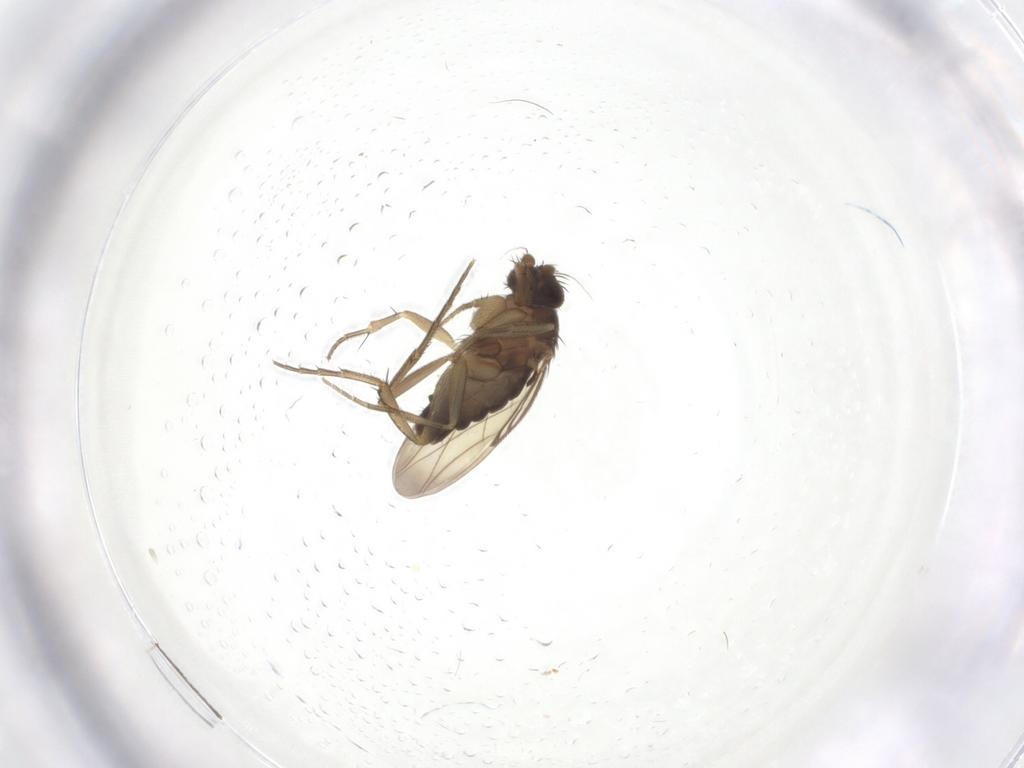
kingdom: Animalia
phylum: Arthropoda
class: Insecta
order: Diptera
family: Phoridae
